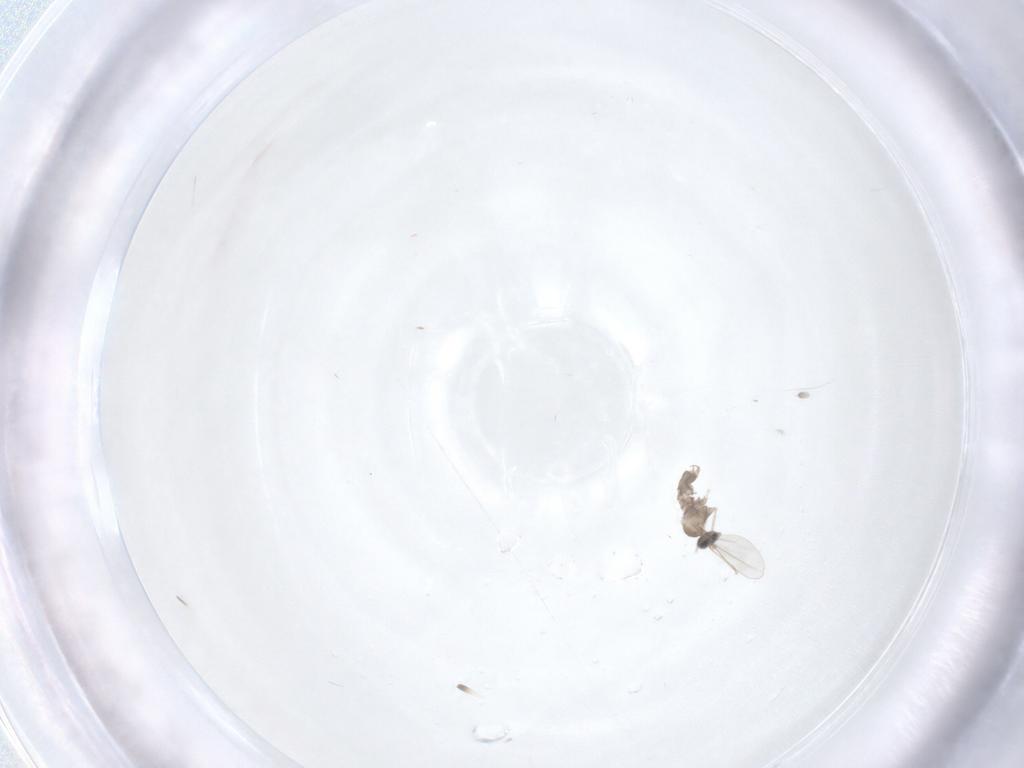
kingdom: Animalia
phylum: Arthropoda
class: Insecta
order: Diptera
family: Cecidomyiidae
